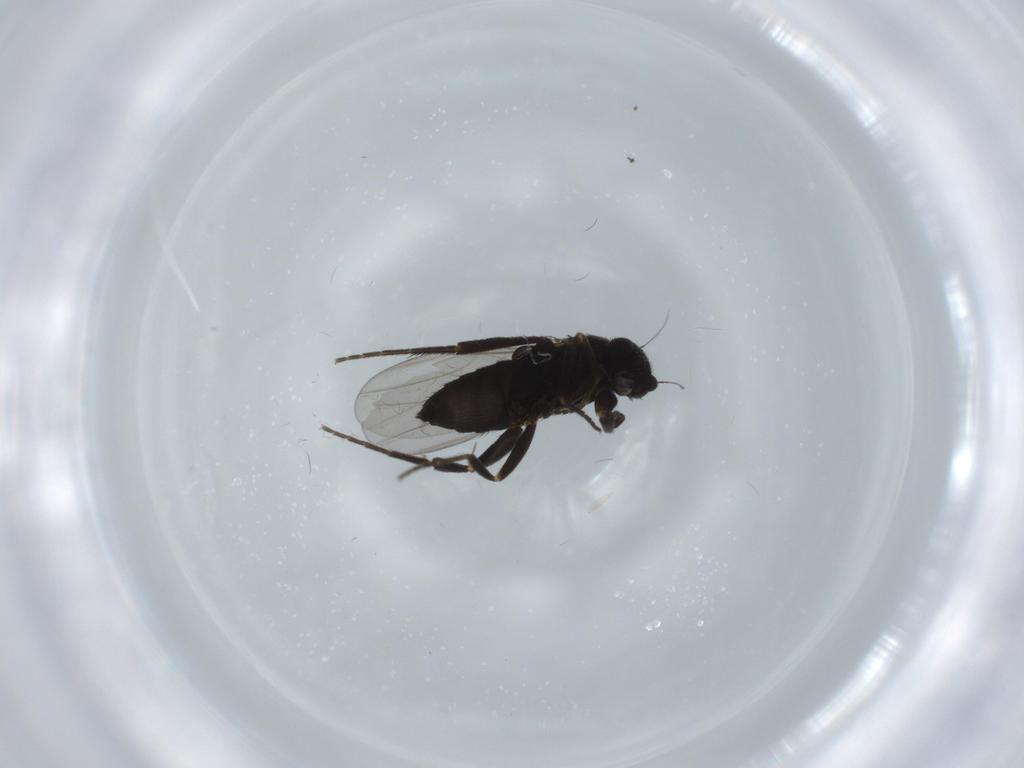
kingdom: Animalia
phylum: Arthropoda
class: Insecta
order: Diptera
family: Phoridae
